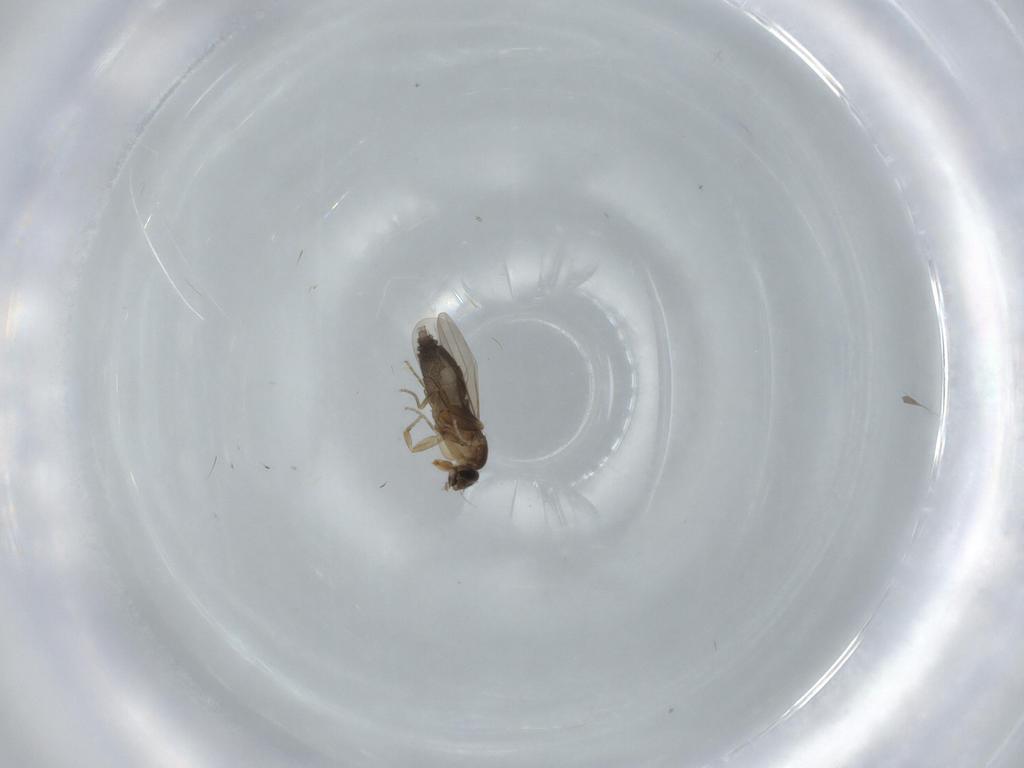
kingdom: Animalia
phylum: Arthropoda
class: Insecta
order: Diptera
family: Phoridae
